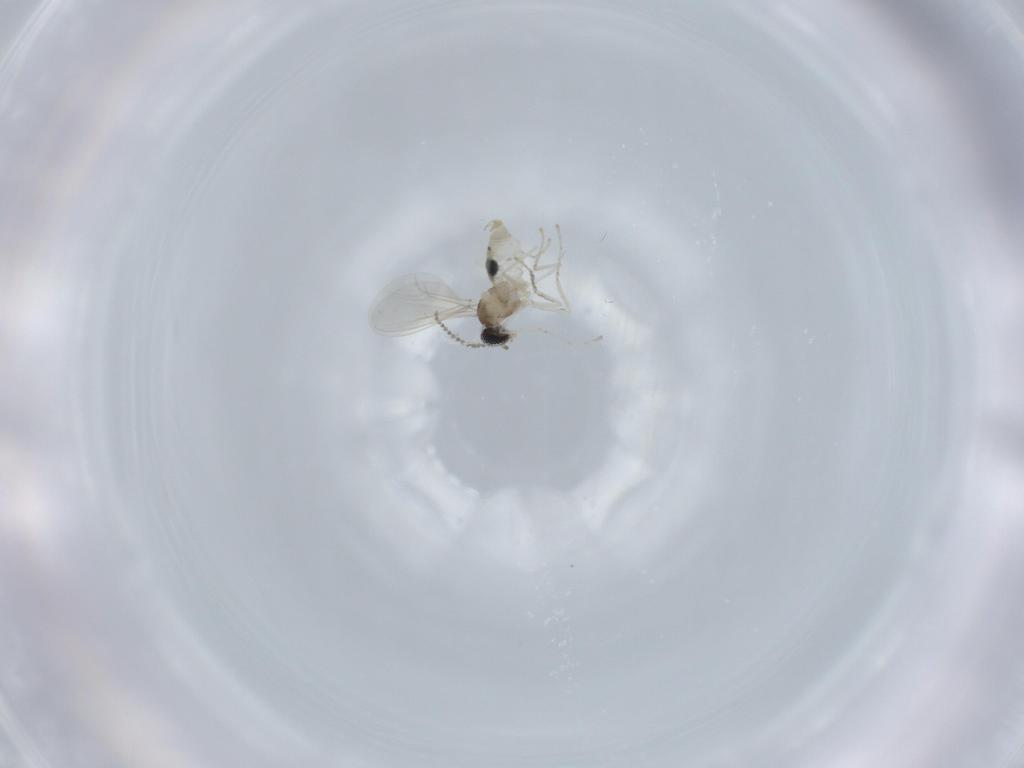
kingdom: Animalia
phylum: Arthropoda
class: Insecta
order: Diptera
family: Cecidomyiidae
